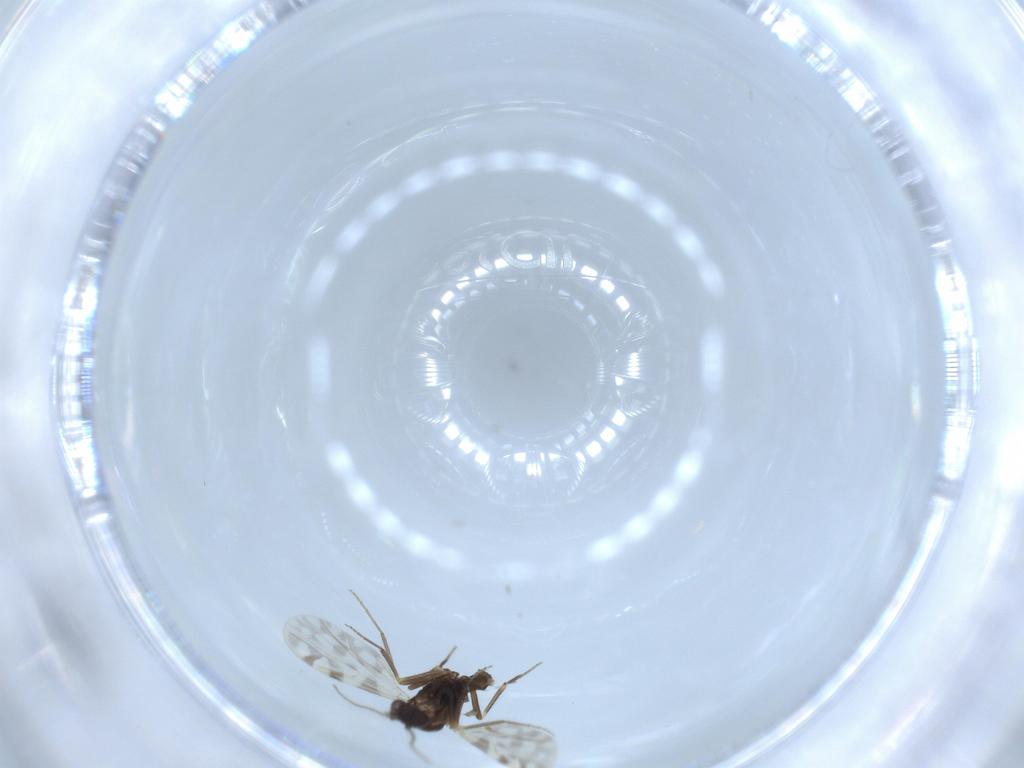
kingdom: Animalia
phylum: Arthropoda
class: Insecta
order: Diptera
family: Ceratopogonidae
